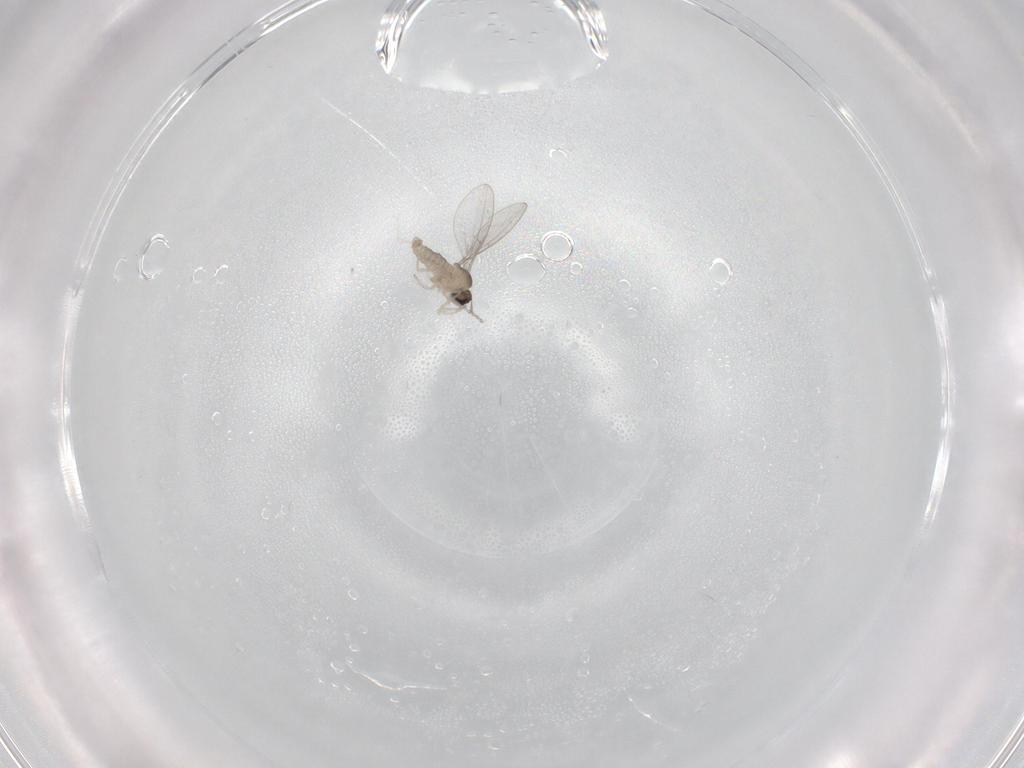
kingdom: Animalia
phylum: Arthropoda
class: Insecta
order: Diptera
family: Cecidomyiidae
